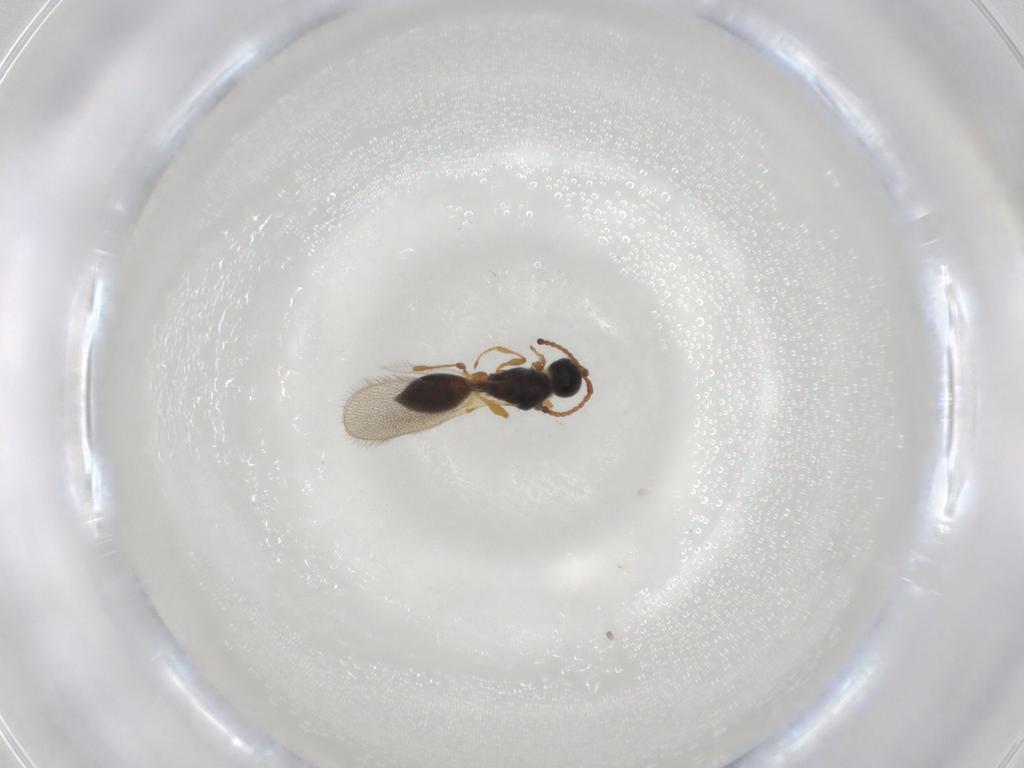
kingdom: Animalia
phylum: Arthropoda
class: Insecta
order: Hymenoptera
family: Diapriidae
